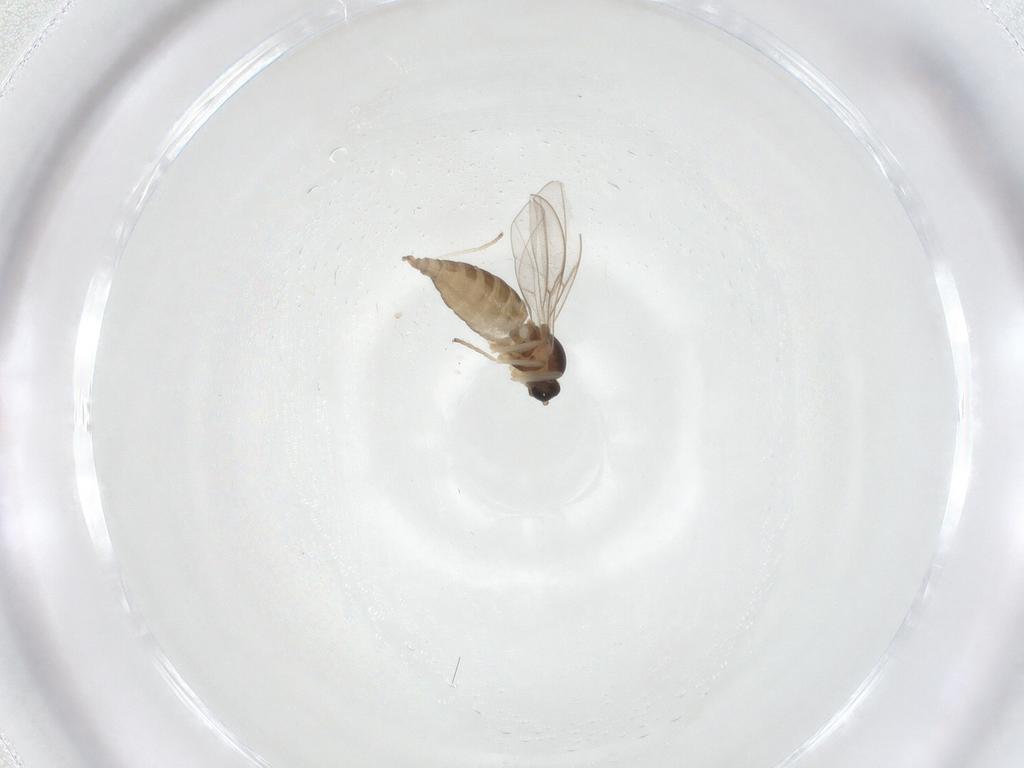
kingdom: Animalia
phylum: Arthropoda
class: Insecta
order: Diptera
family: Cecidomyiidae
